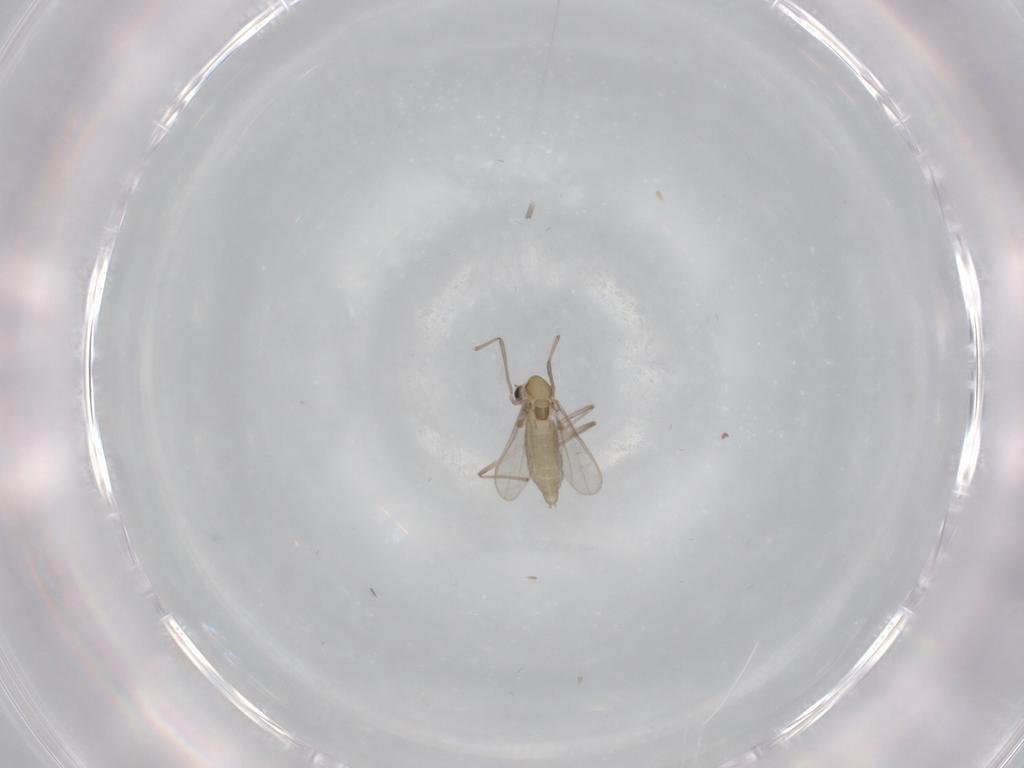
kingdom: Animalia
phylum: Arthropoda
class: Insecta
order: Diptera
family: Chironomidae
